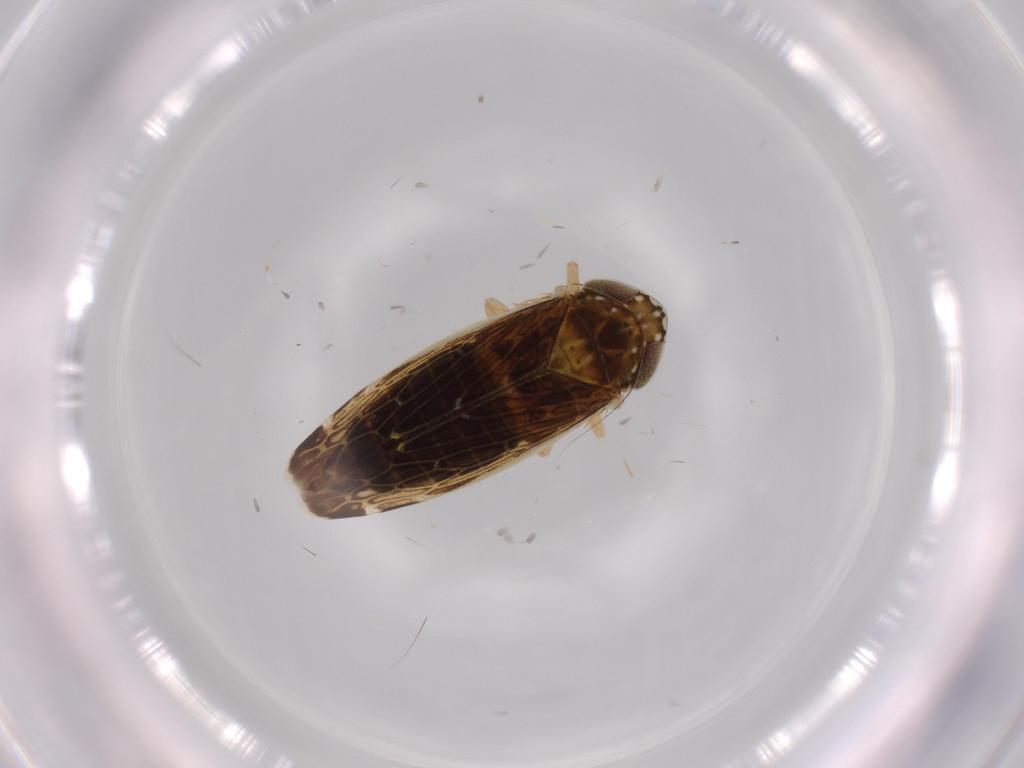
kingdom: Animalia
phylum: Arthropoda
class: Insecta
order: Hemiptera
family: Cicadellidae
